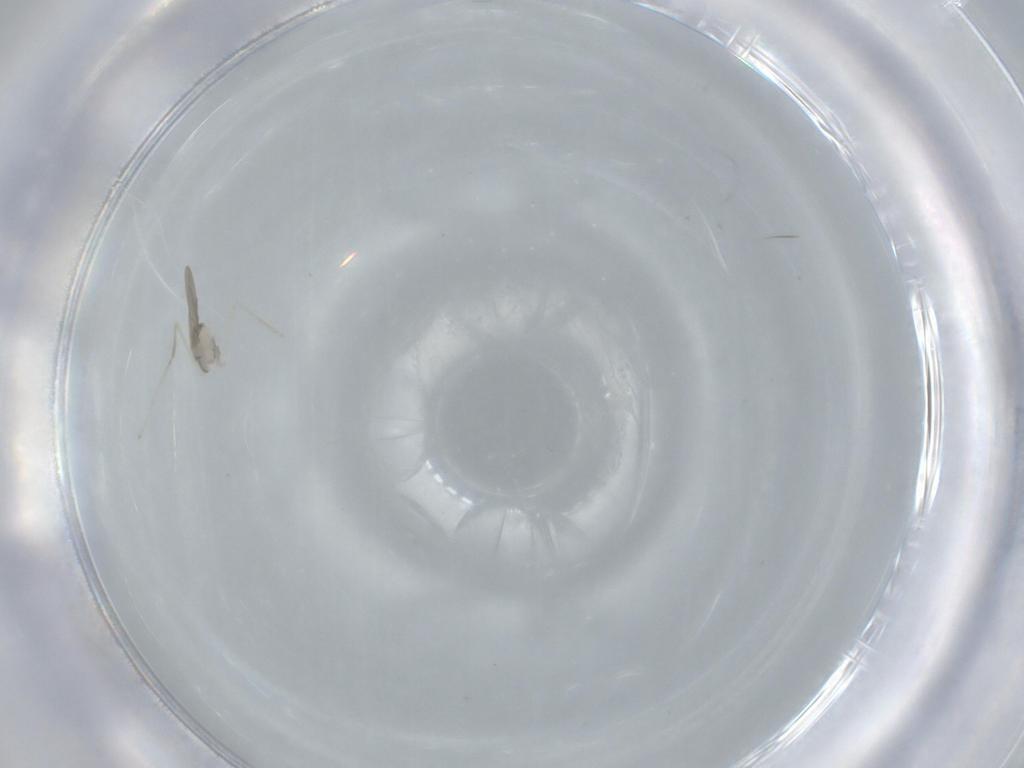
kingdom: Animalia
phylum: Arthropoda
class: Insecta
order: Diptera
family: Cecidomyiidae
